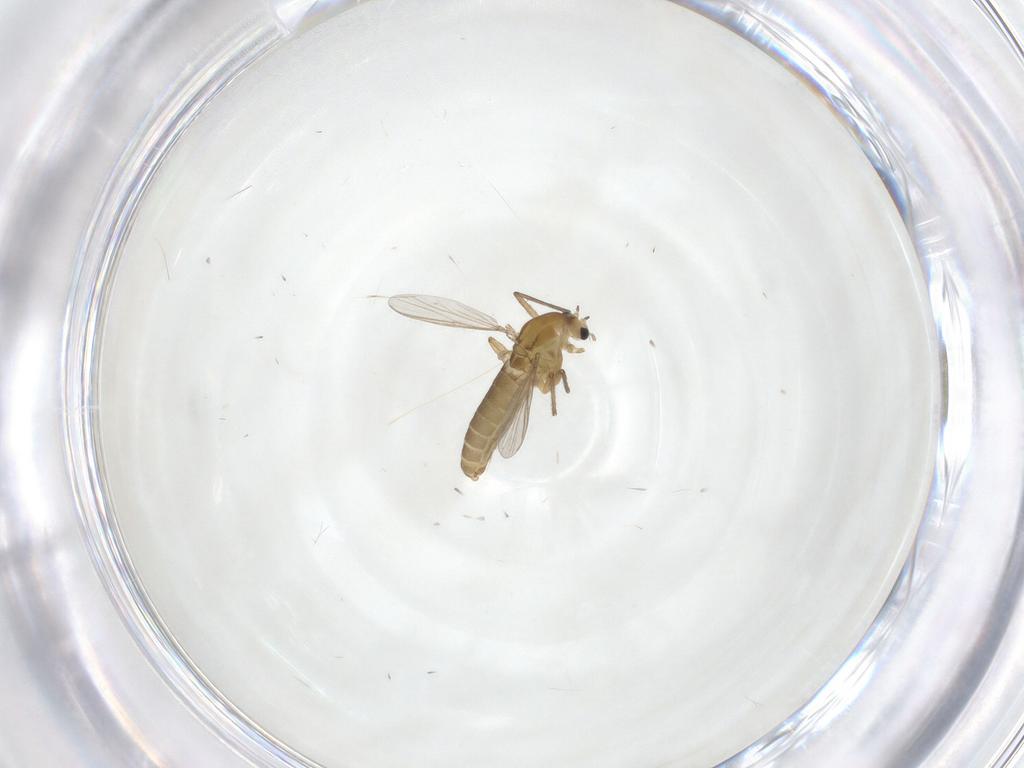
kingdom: Animalia
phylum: Arthropoda
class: Insecta
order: Diptera
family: Chironomidae
